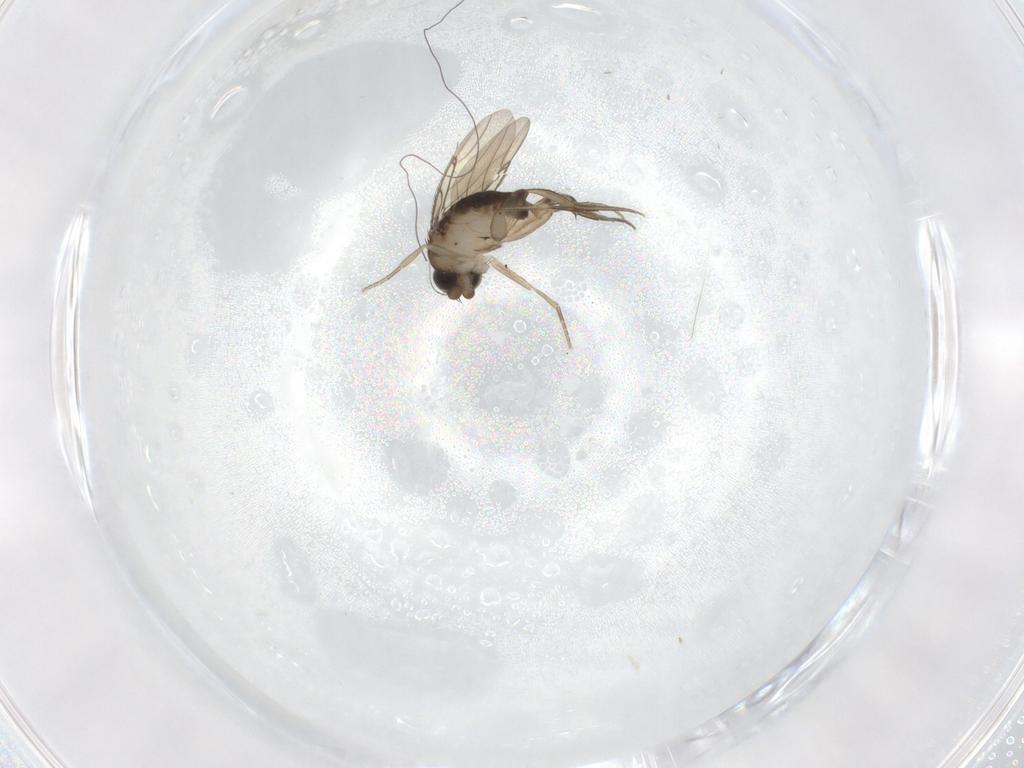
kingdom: Animalia
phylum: Arthropoda
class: Insecta
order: Diptera
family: Phoridae
